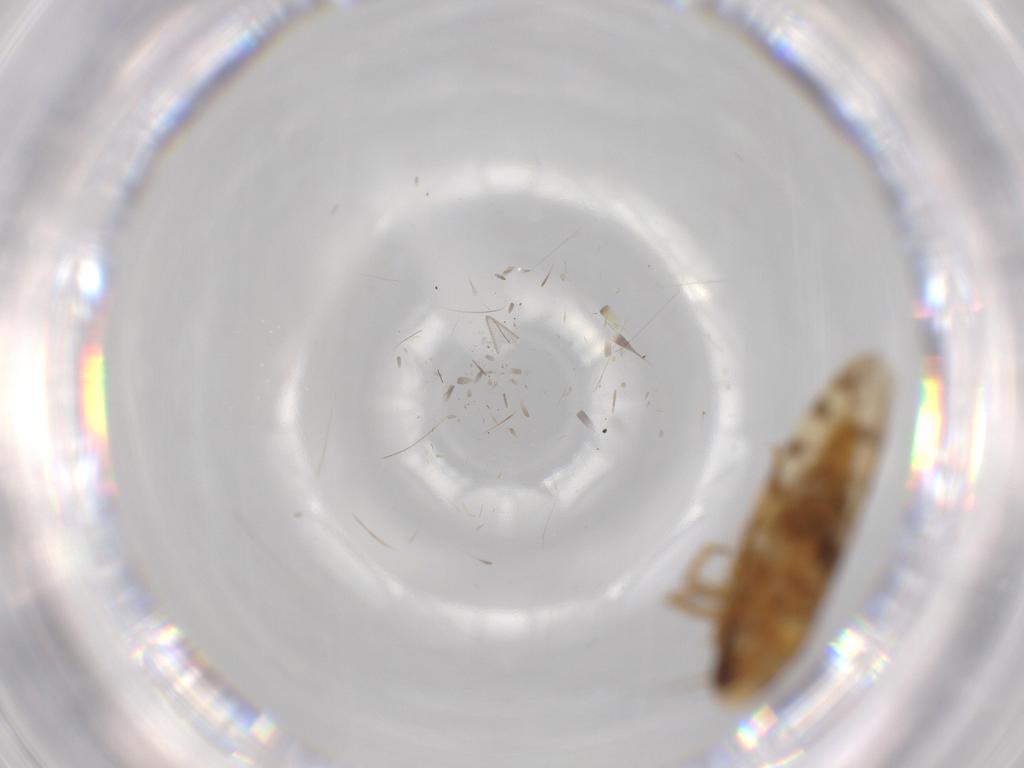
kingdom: Animalia
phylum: Arthropoda
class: Insecta
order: Hemiptera
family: Cicadellidae
